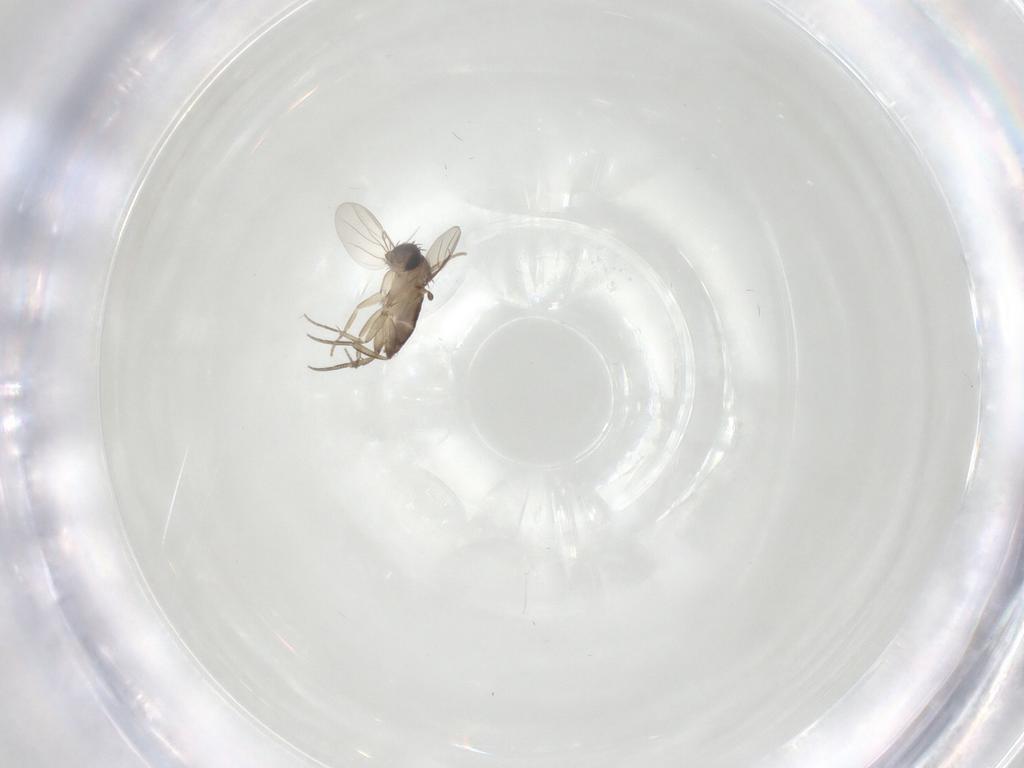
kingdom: Animalia
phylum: Arthropoda
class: Insecta
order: Diptera
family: Phoridae
